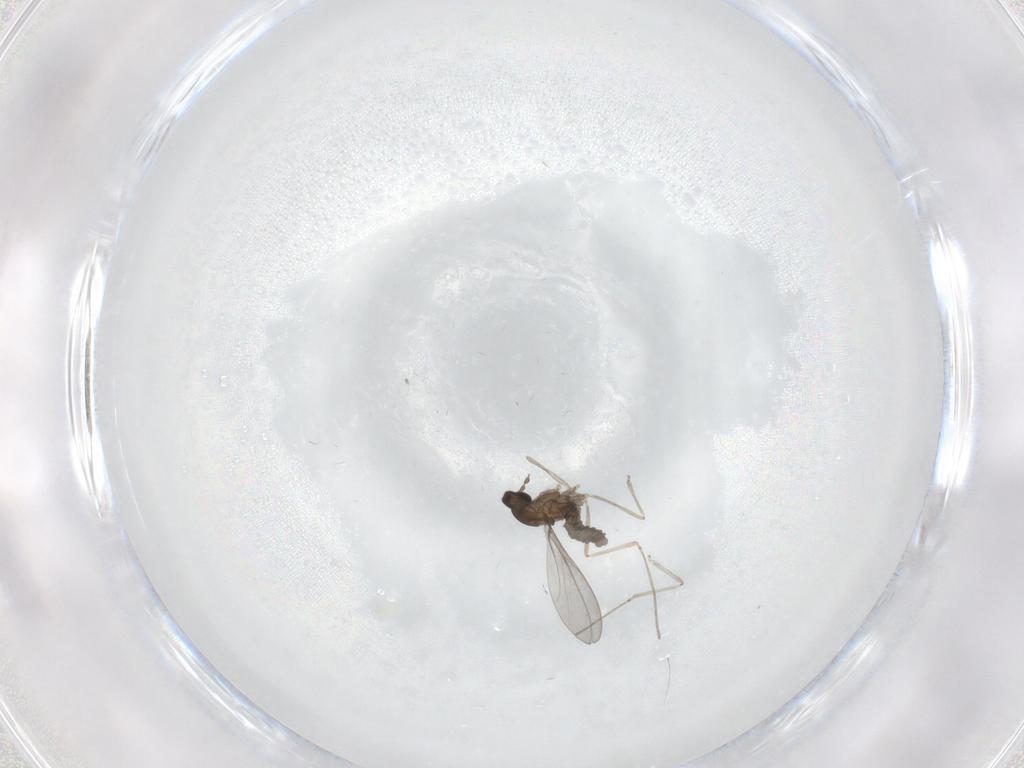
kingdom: Animalia
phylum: Arthropoda
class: Insecta
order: Diptera
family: Cecidomyiidae
